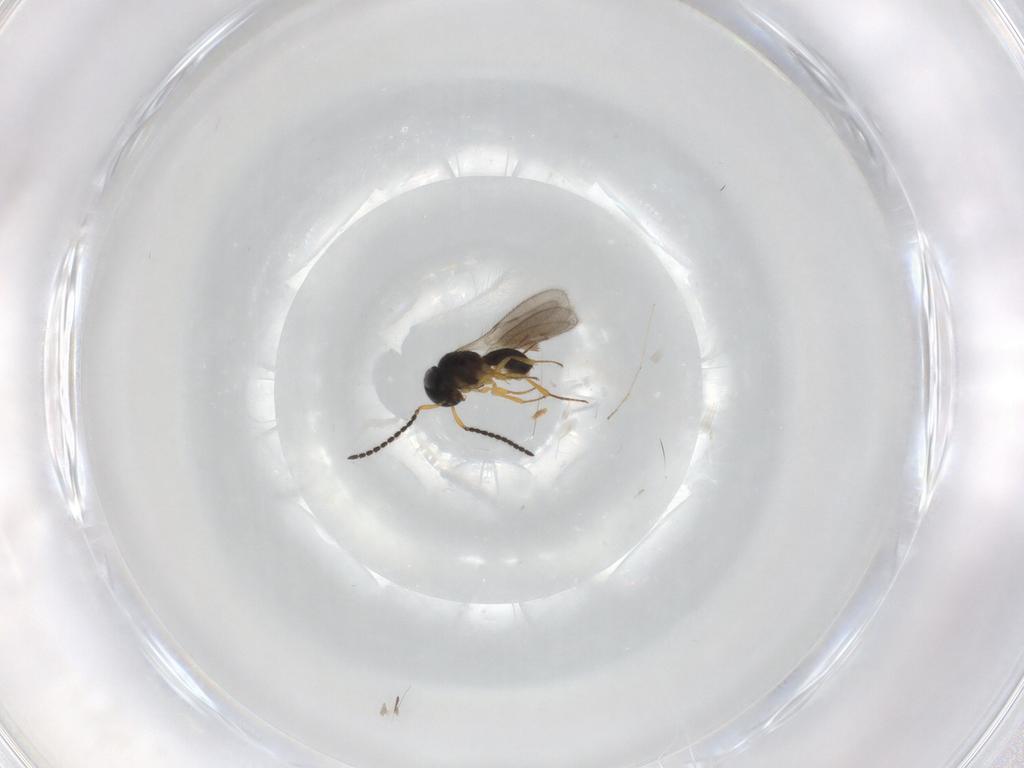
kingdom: Animalia
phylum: Arthropoda
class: Insecta
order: Hymenoptera
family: Scelionidae
